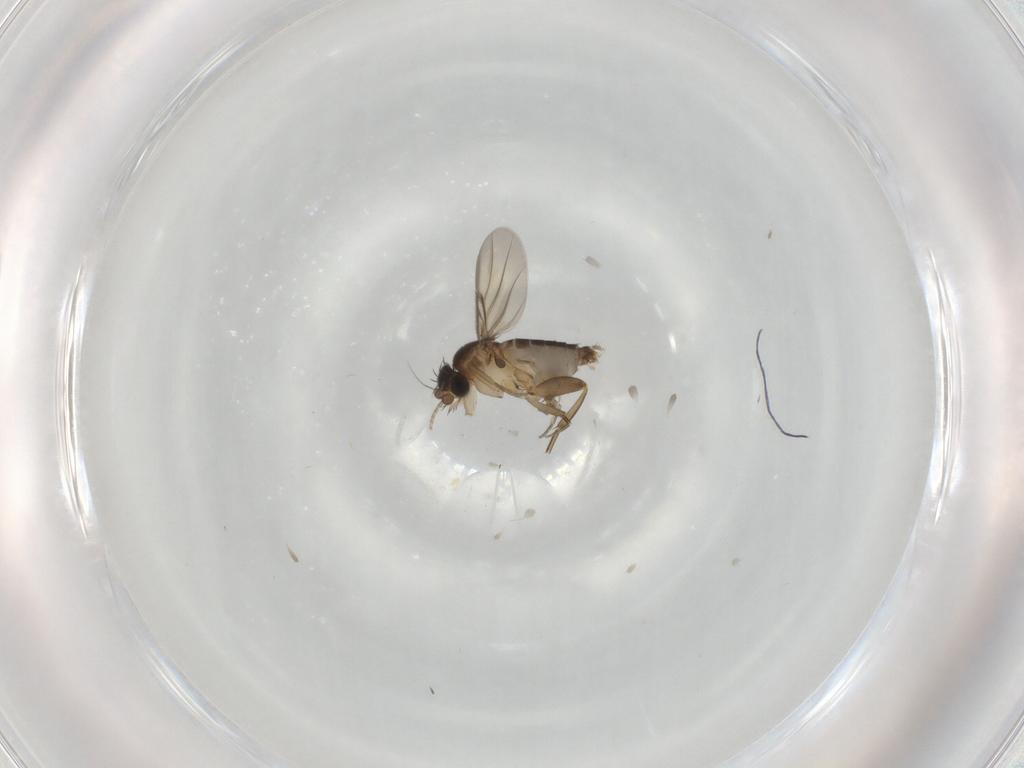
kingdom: Animalia
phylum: Arthropoda
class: Insecta
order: Diptera
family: Phoridae
